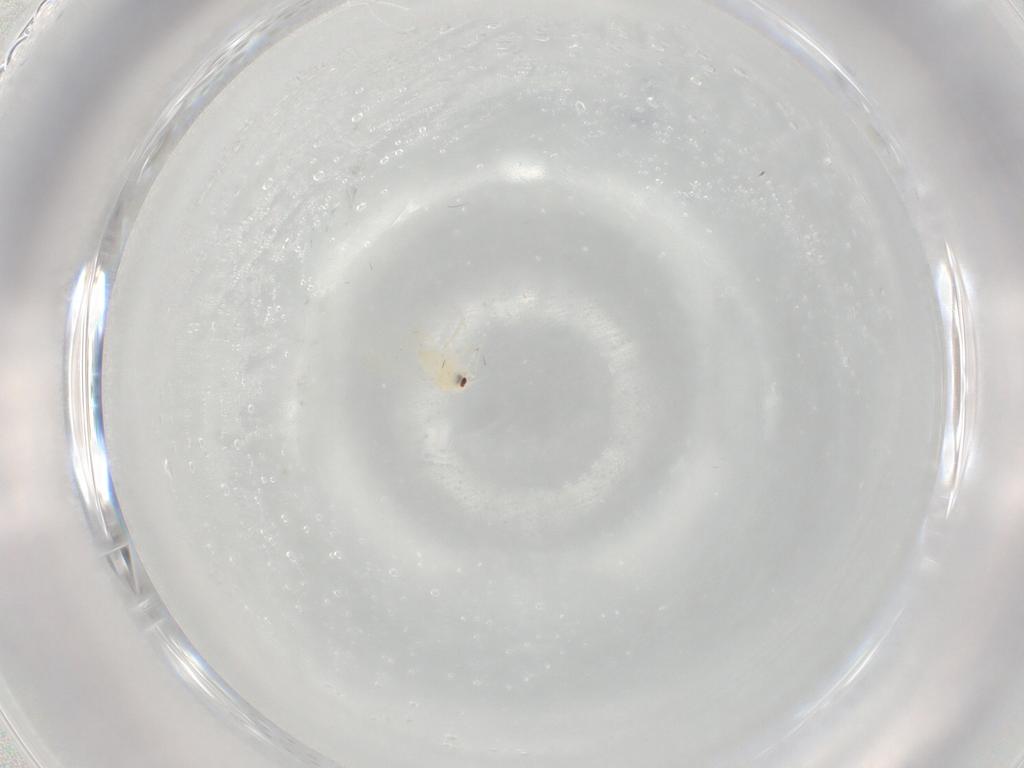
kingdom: Animalia
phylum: Arthropoda
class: Insecta
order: Hemiptera
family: Aleyrodidae
